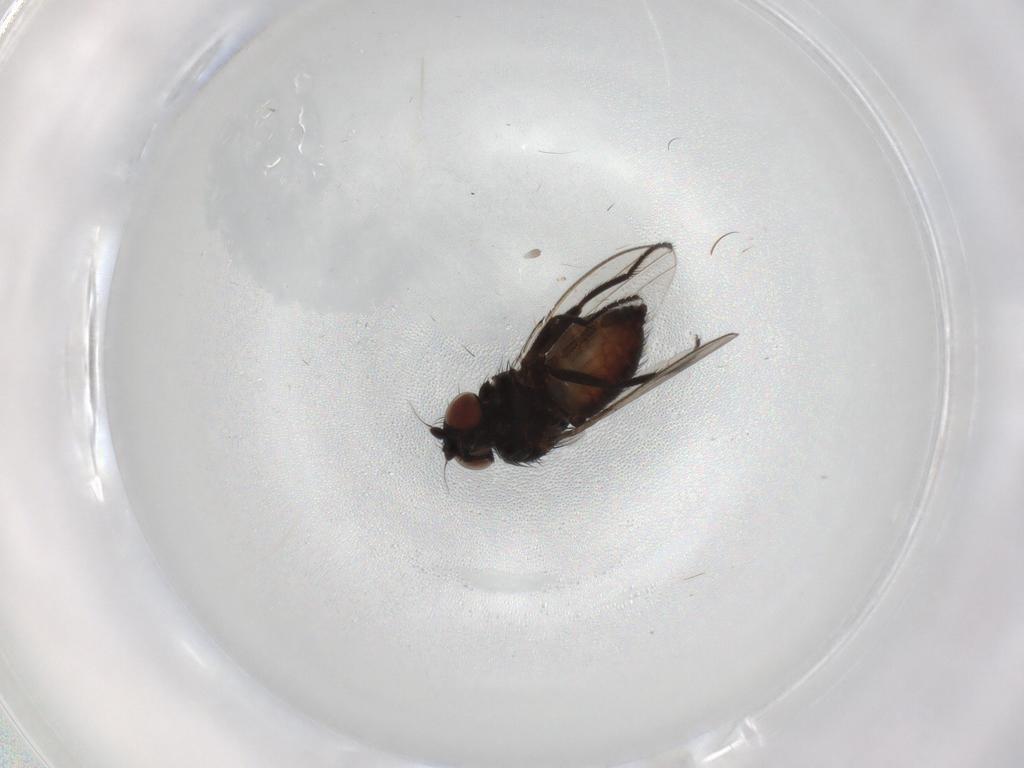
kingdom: Animalia
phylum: Arthropoda
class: Insecta
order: Diptera
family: Milichiidae
